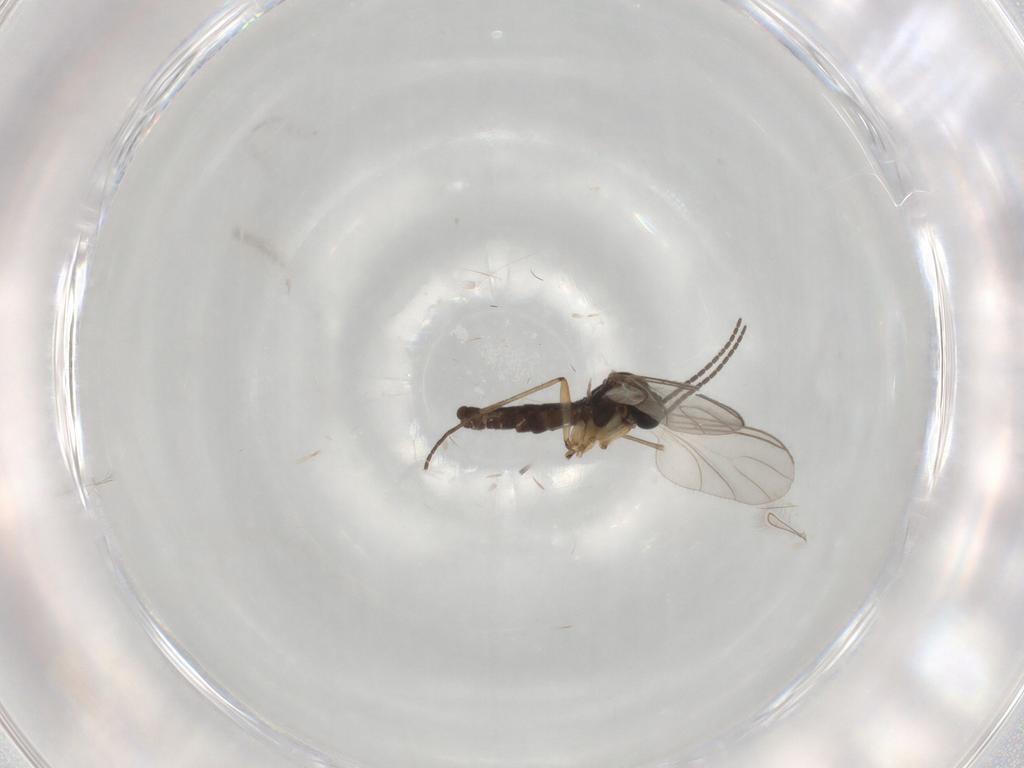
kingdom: Animalia
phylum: Arthropoda
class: Insecta
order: Diptera
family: Sciaridae
